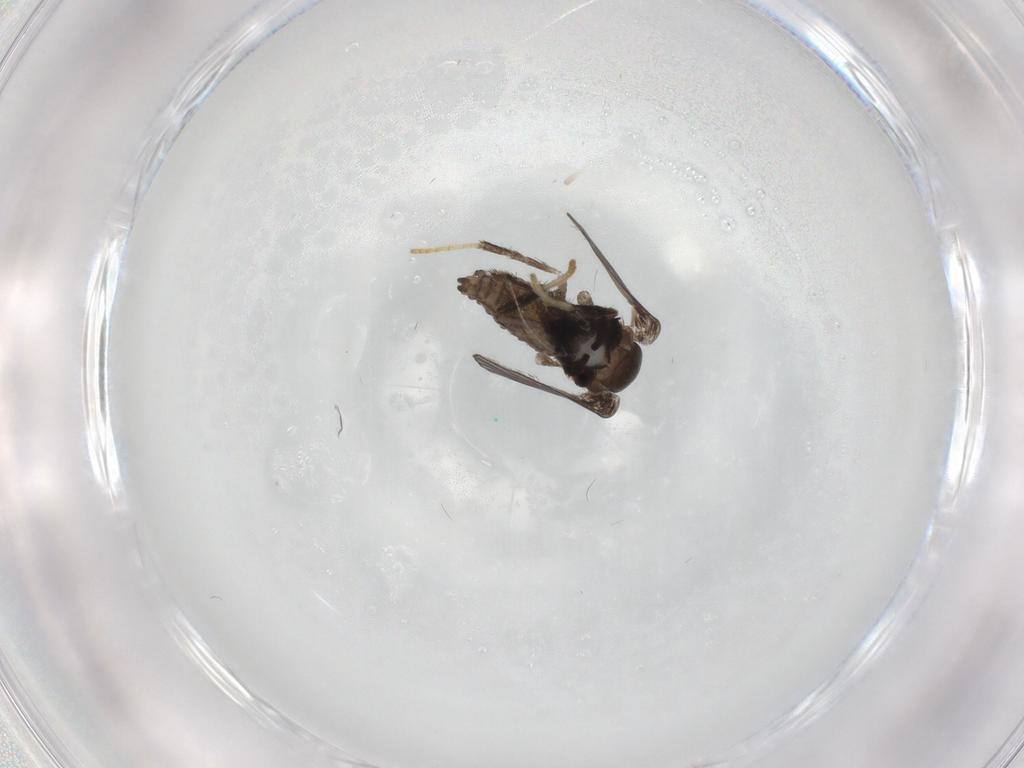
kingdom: Animalia
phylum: Arthropoda
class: Insecta
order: Diptera
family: Psychodidae
